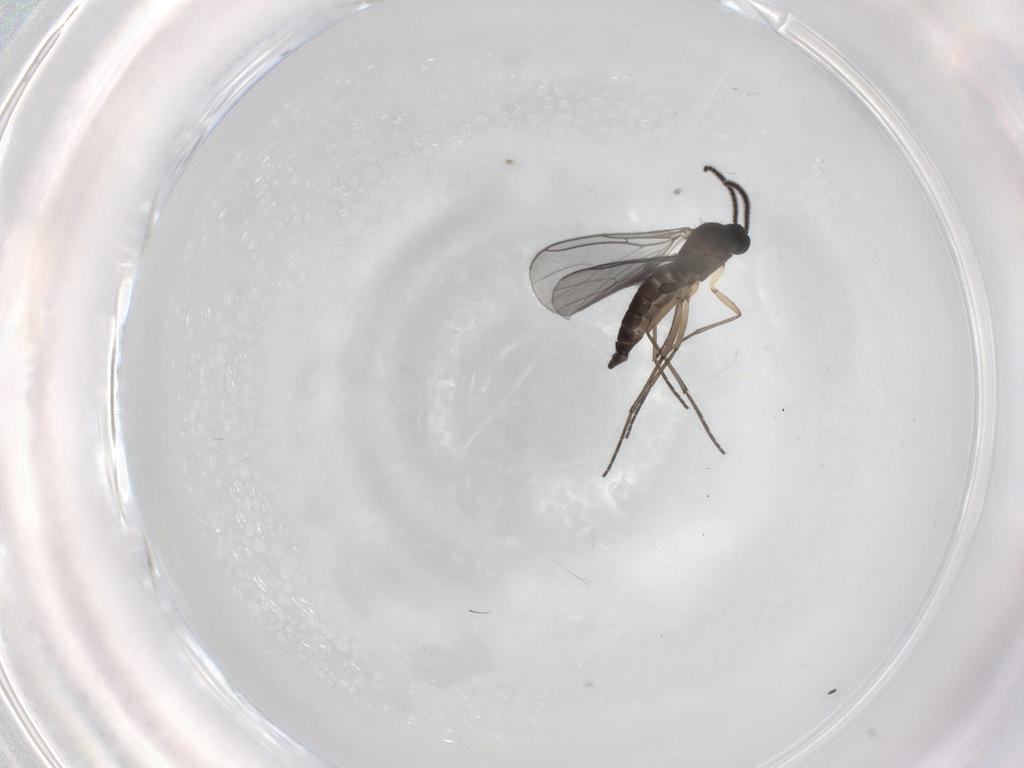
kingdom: Animalia
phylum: Arthropoda
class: Insecta
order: Diptera
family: Sciaridae
